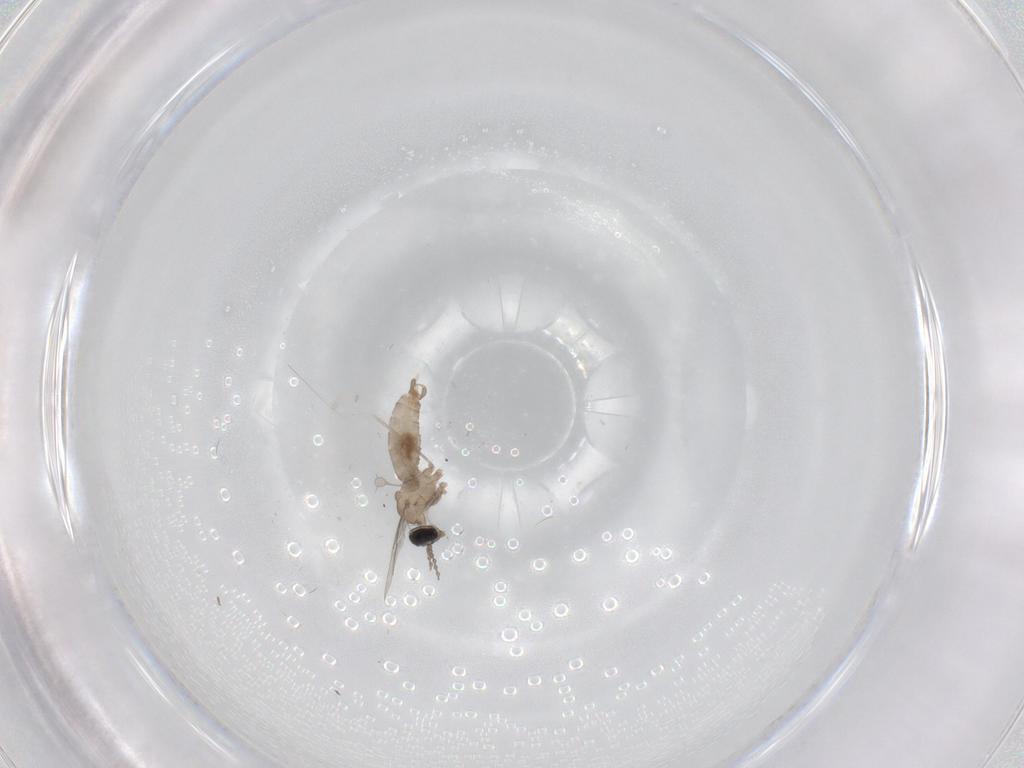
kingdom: Animalia
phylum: Arthropoda
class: Insecta
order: Diptera
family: Cecidomyiidae
